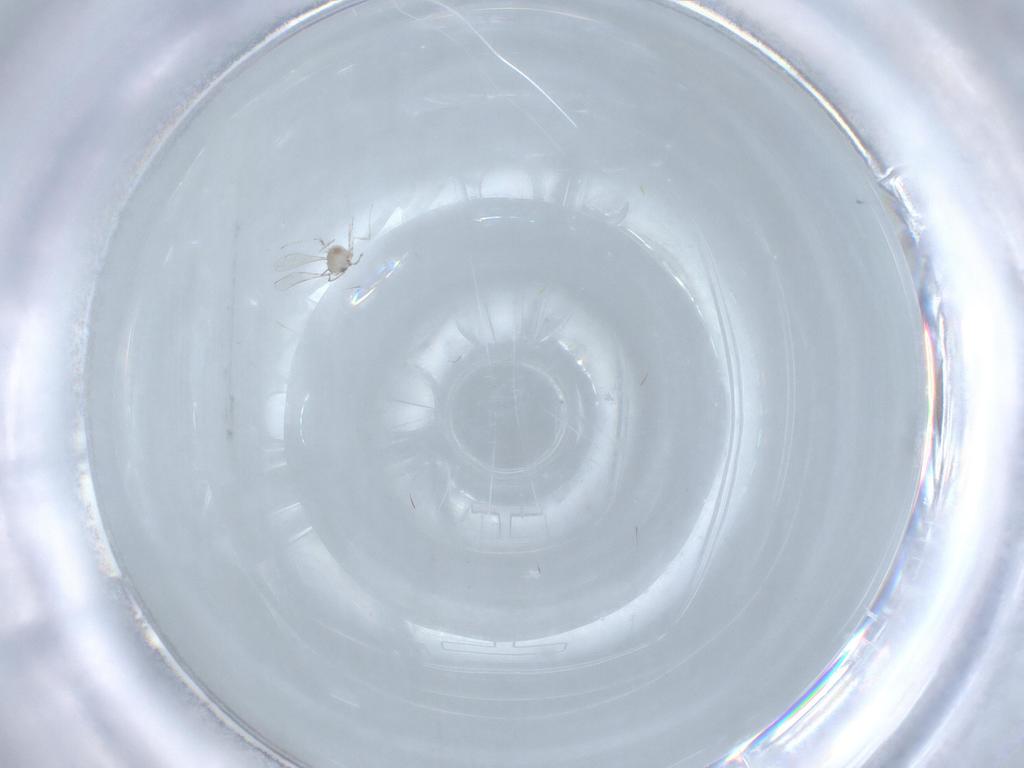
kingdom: Animalia
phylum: Arthropoda
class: Insecta
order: Diptera
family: Cecidomyiidae
